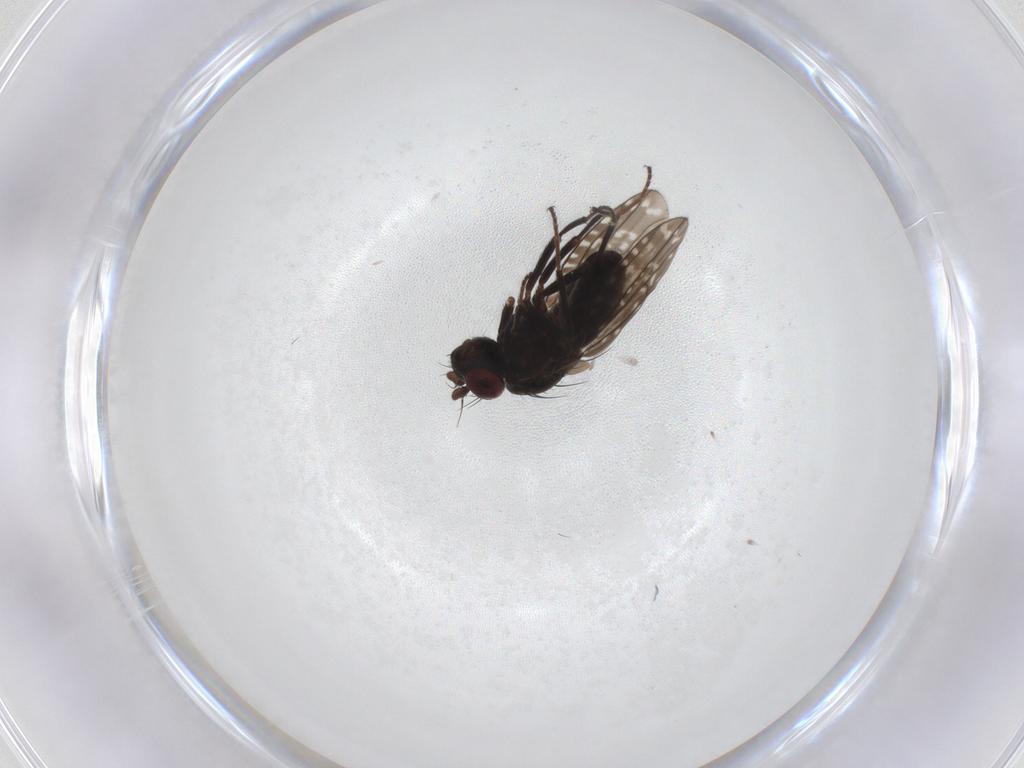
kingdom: Animalia
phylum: Arthropoda
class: Insecta
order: Diptera
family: Ephydridae
